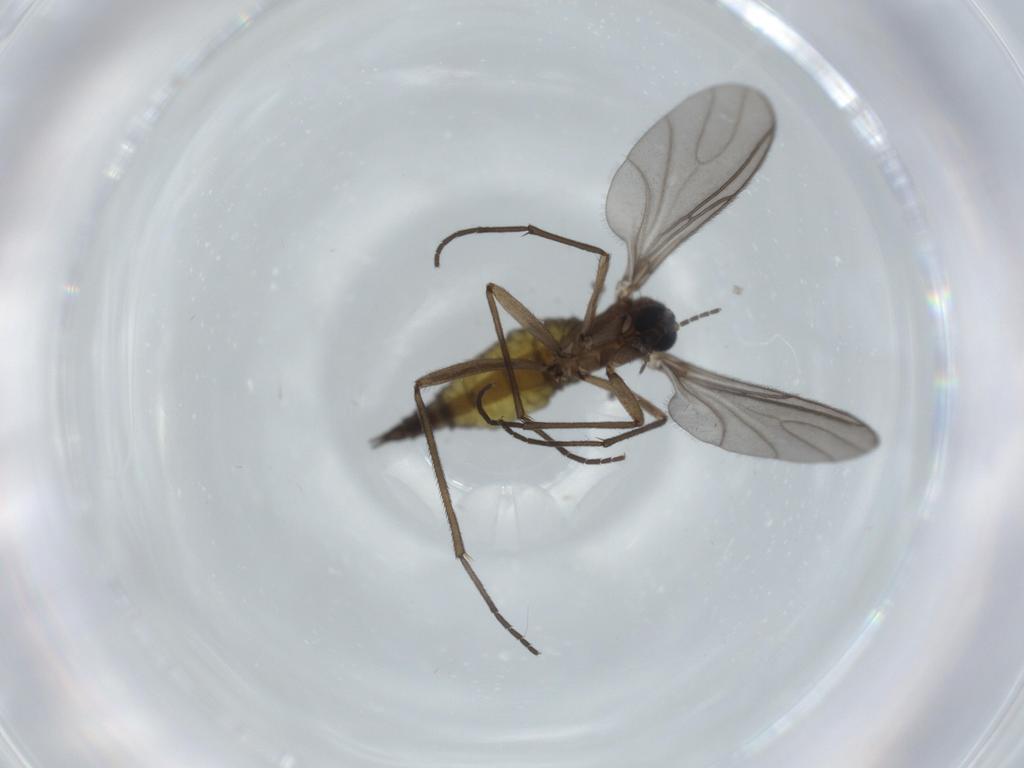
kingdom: Animalia
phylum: Arthropoda
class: Insecta
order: Diptera
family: Sciaridae
